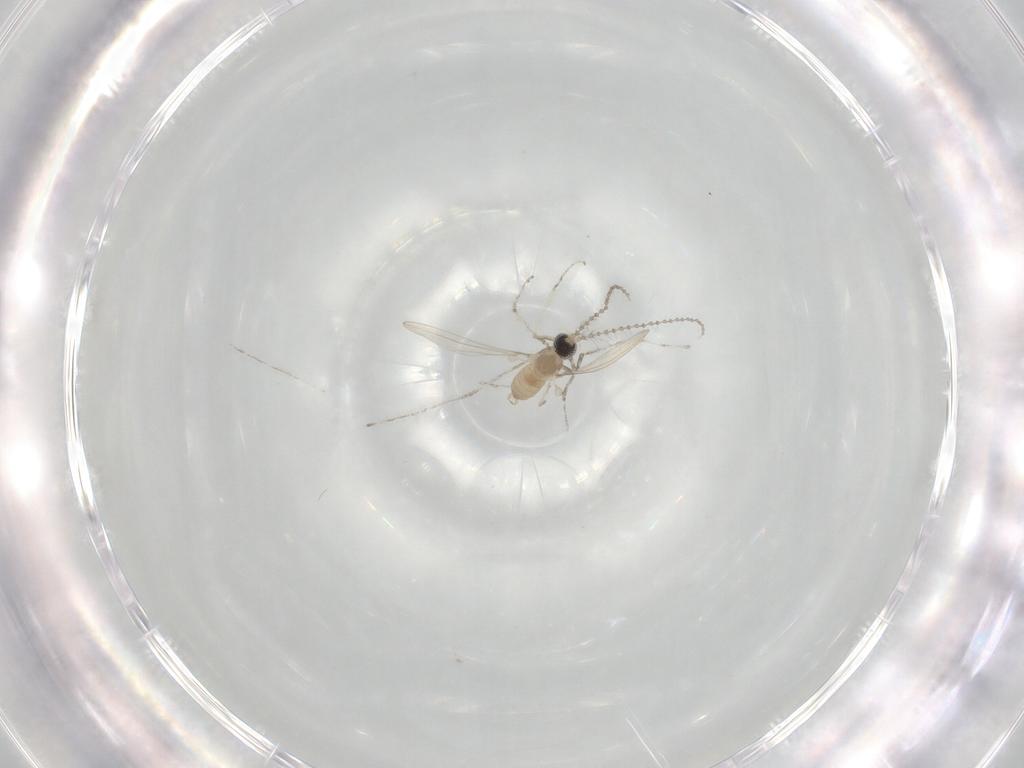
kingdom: Animalia
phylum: Arthropoda
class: Insecta
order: Diptera
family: Cecidomyiidae
